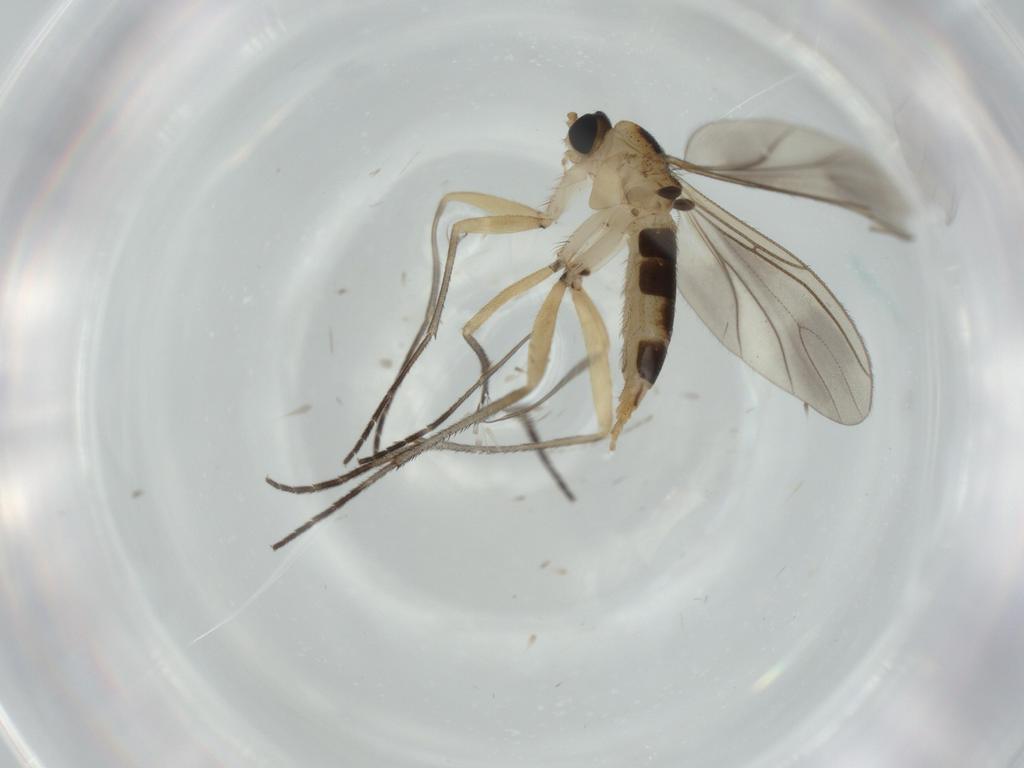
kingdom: Animalia
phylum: Arthropoda
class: Insecta
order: Diptera
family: Sciaridae
